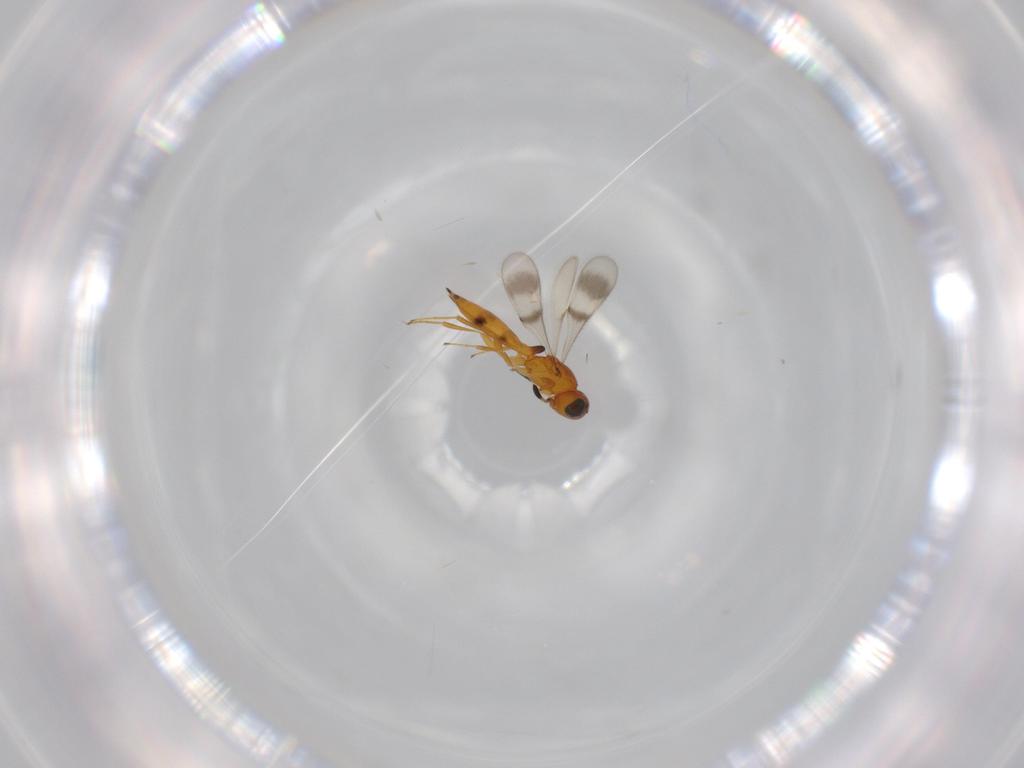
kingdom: Animalia
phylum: Arthropoda
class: Insecta
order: Hymenoptera
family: Scelionidae
